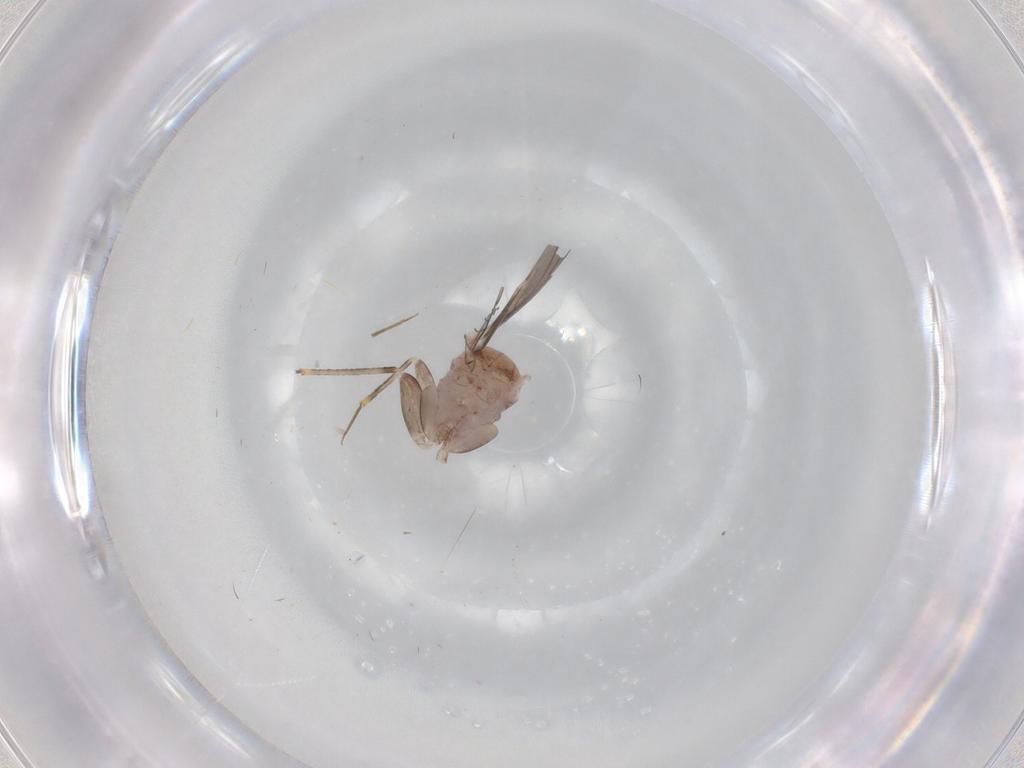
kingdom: Animalia
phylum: Arthropoda
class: Insecta
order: Psocodea
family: Lepidopsocidae
